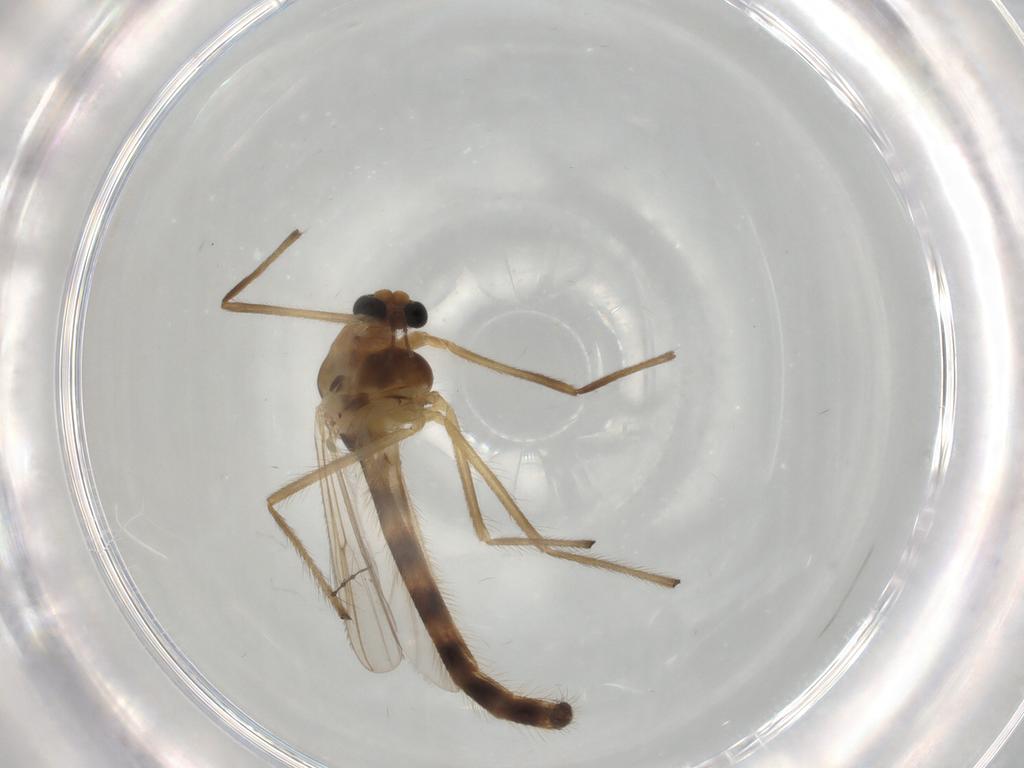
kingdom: Animalia
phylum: Arthropoda
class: Insecta
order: Diptera
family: Chironomidae
